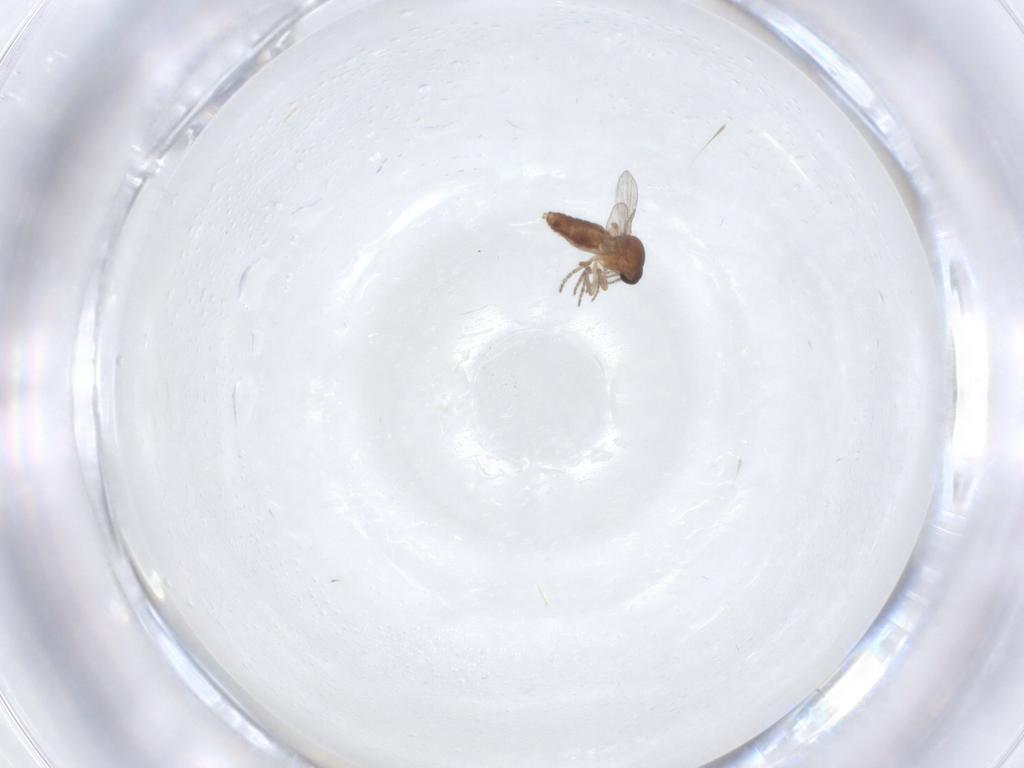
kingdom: Animalia
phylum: Arthropoda
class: Insecta
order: Diptera
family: Ceratopogonidae
